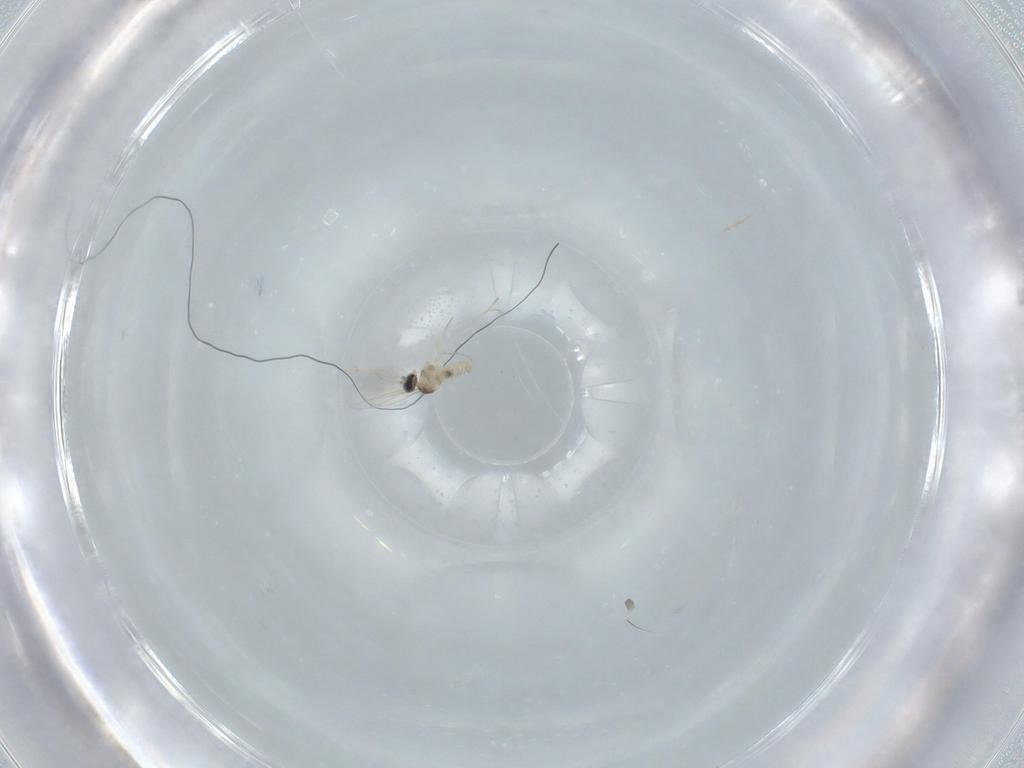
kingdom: Animalia
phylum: Arthropoda
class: Insecta
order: Diptera
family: Cecidomyiidae
